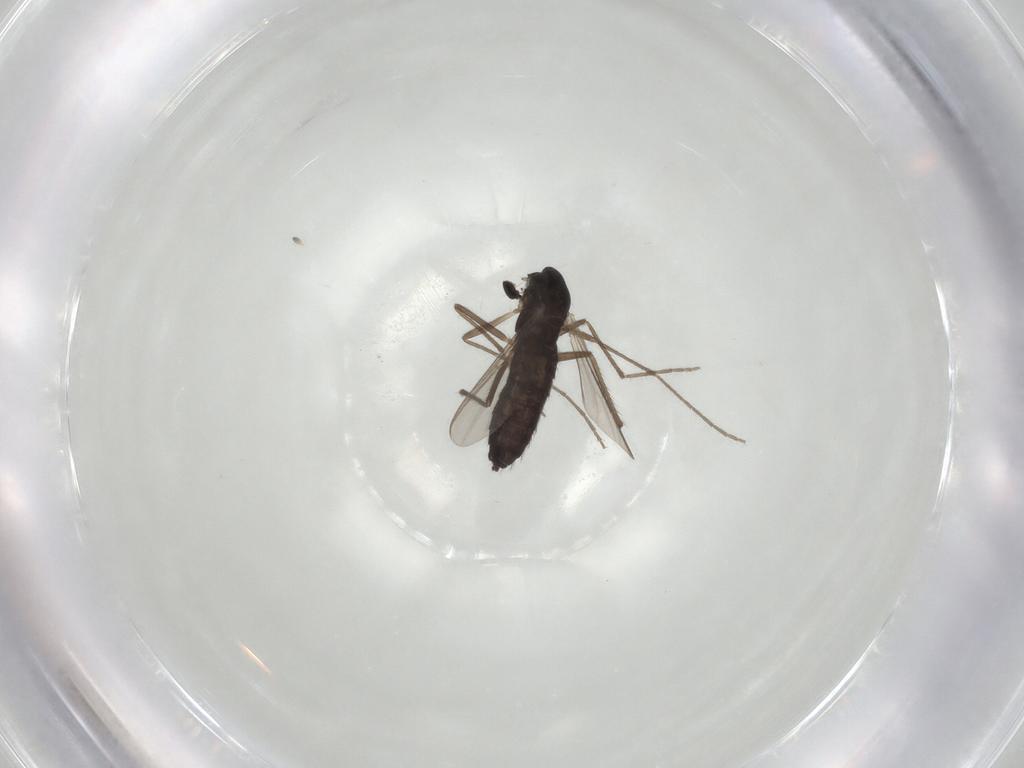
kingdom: Animalia
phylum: Arthropoda
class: Insecta
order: Diptera
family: Chironomidae
